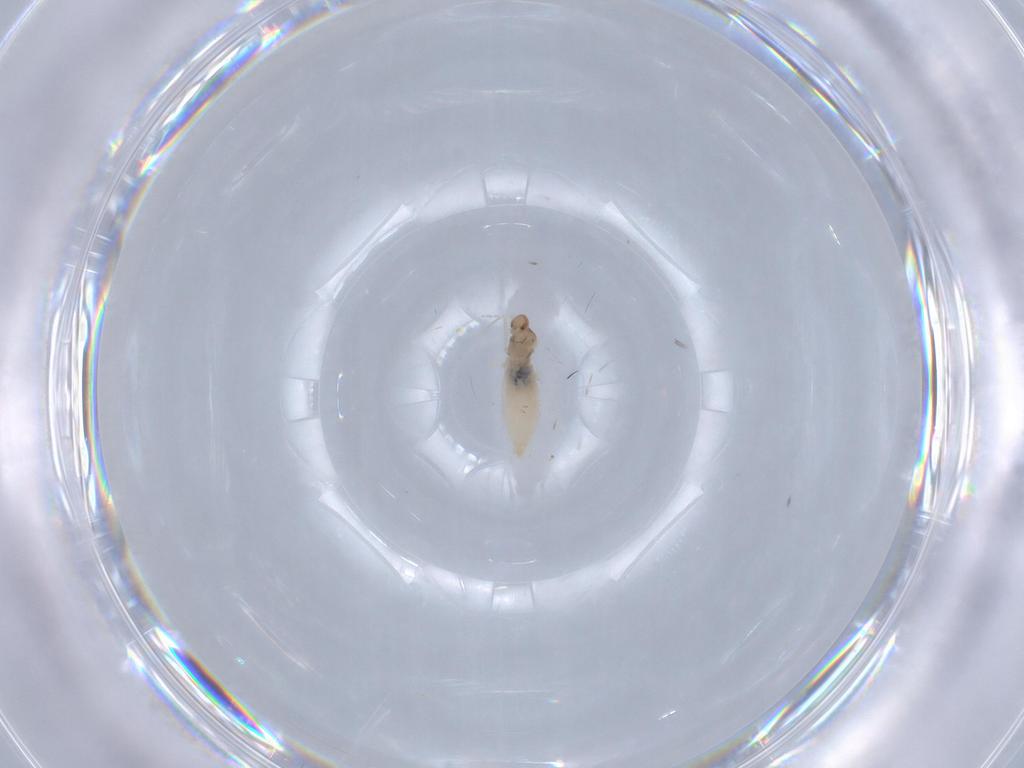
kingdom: Animalia
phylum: Arthropoda
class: Insecta
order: Diptera
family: Cecidomyiidae
